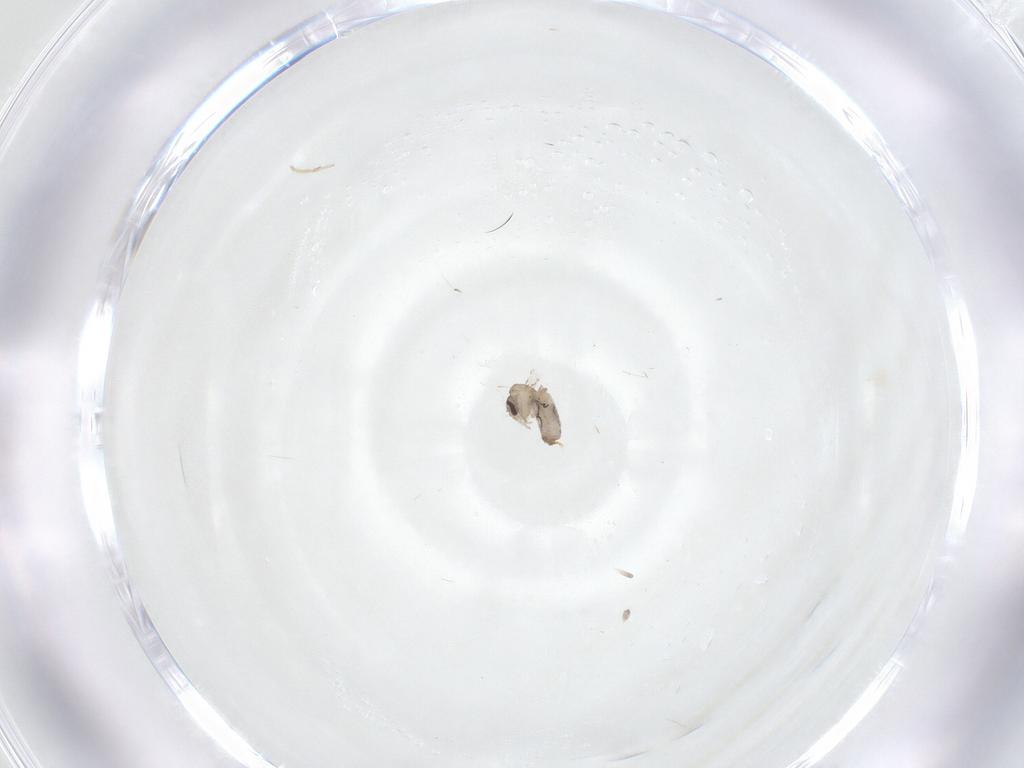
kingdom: Animalia
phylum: Arthropoda
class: Insecta
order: Diptera
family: Psychodidae
